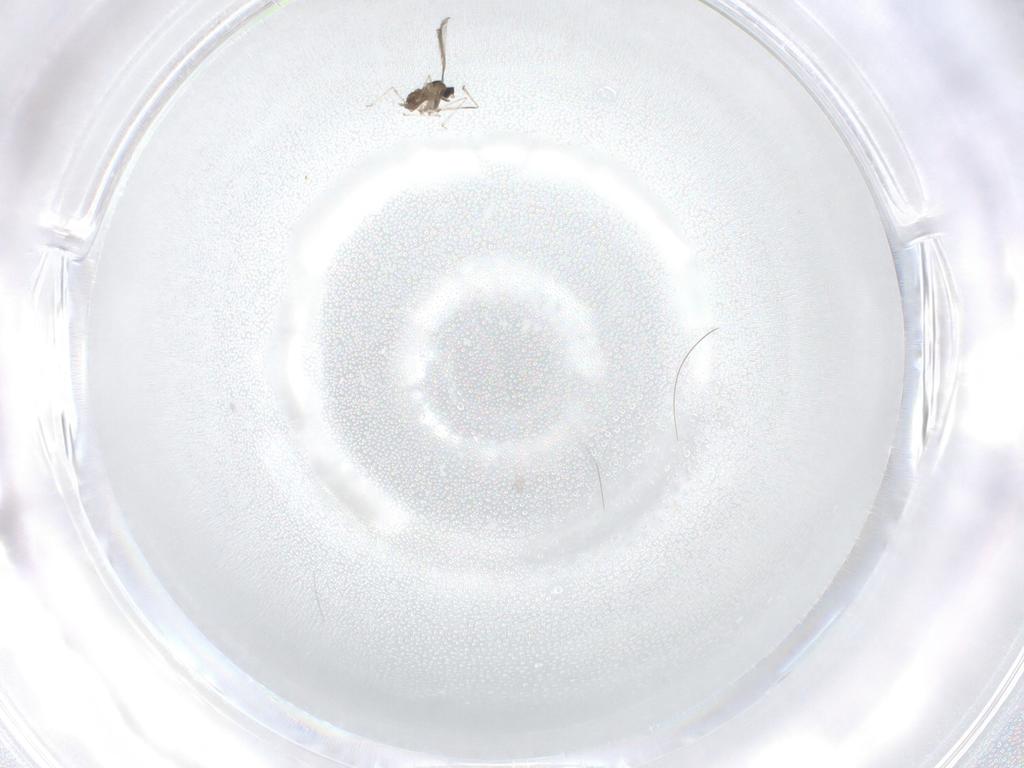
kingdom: Animalia
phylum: Arthropoda
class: Insecta
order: Diptera
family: Cecidomyiidae
